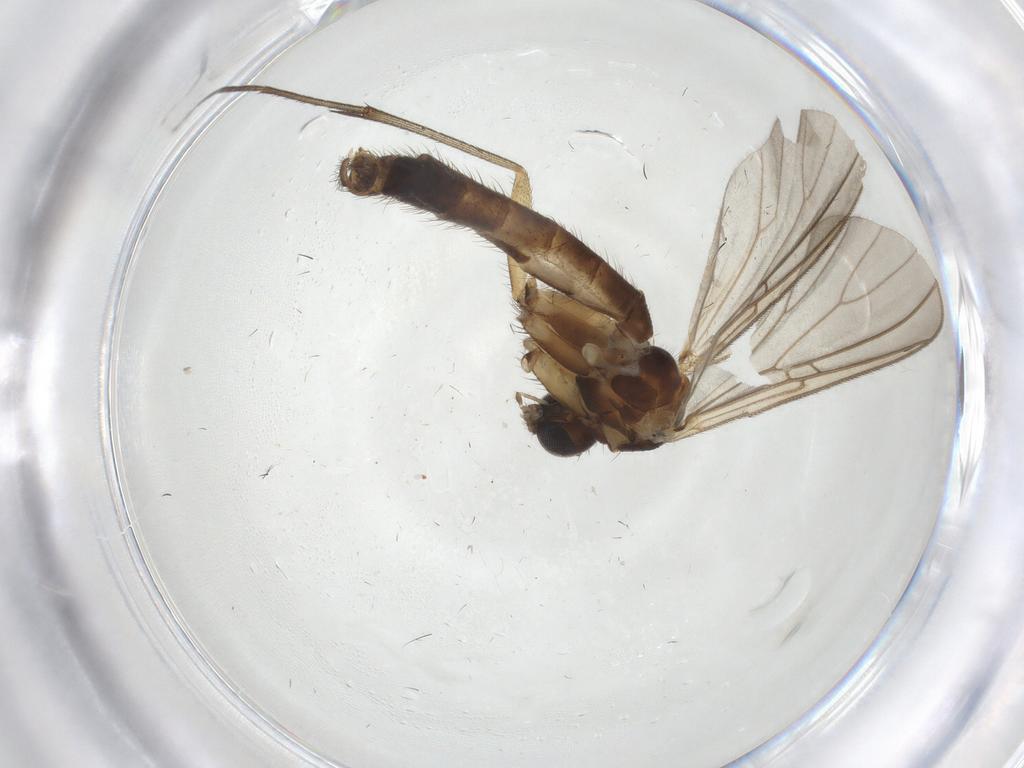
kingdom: Animalia
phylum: Arthropoda
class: Insecta
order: Diptera
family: Mycetophilidae
